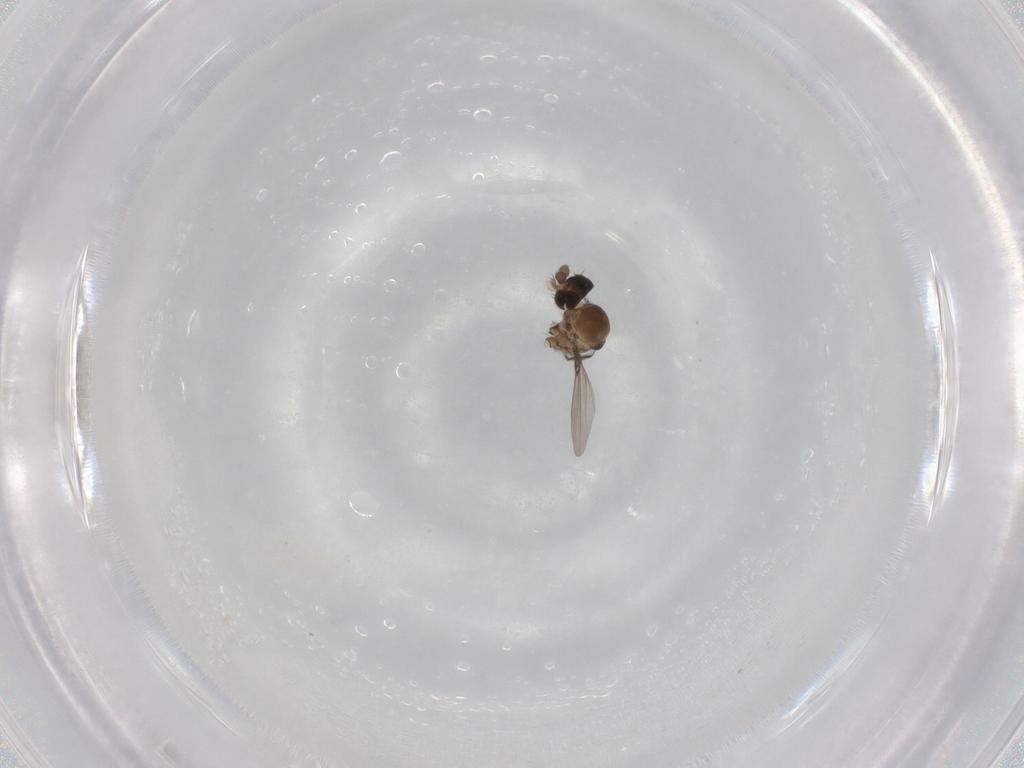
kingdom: Animalia
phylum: Arthropoda
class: Insecta
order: Diptera
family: Phoridae
